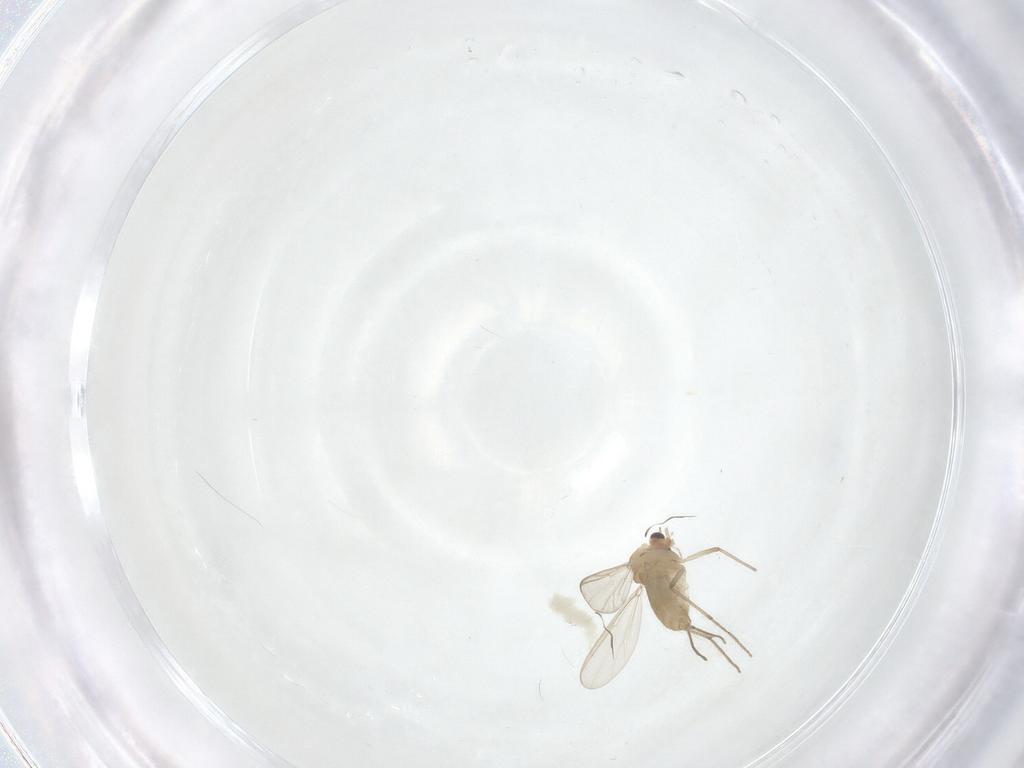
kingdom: Animalia
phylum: Arthropoda
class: Insecta
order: Diptera
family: Chironomidae
